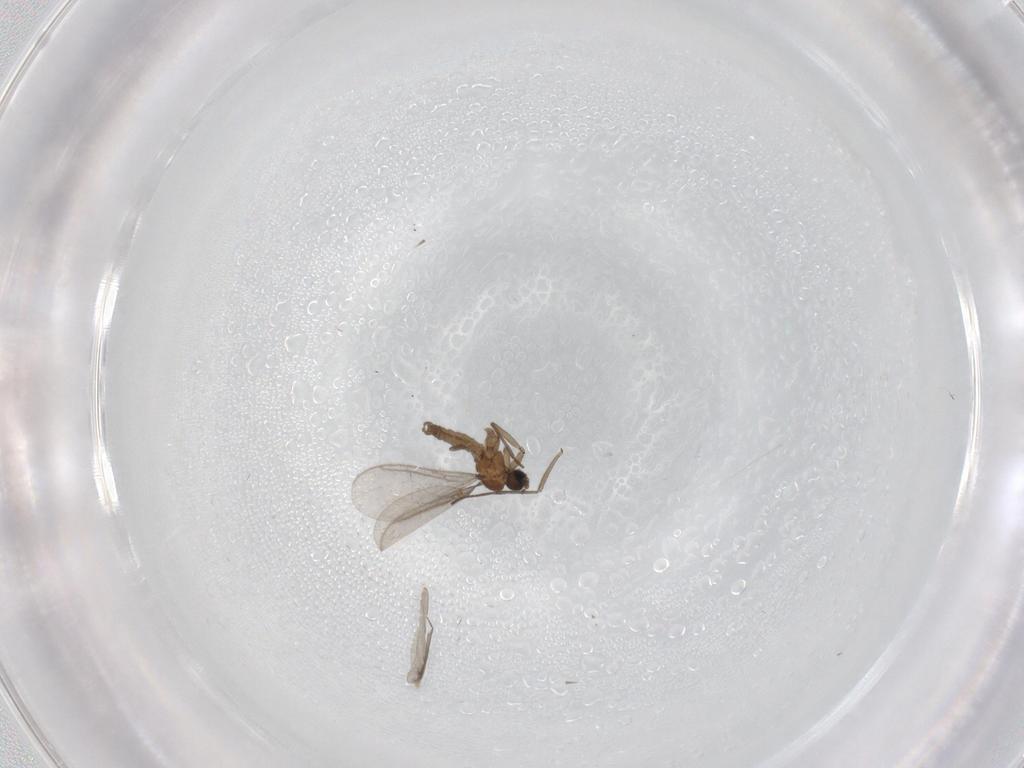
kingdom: Animalia
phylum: Arthropoda
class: Insecta
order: Diptera
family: Sciaridae
